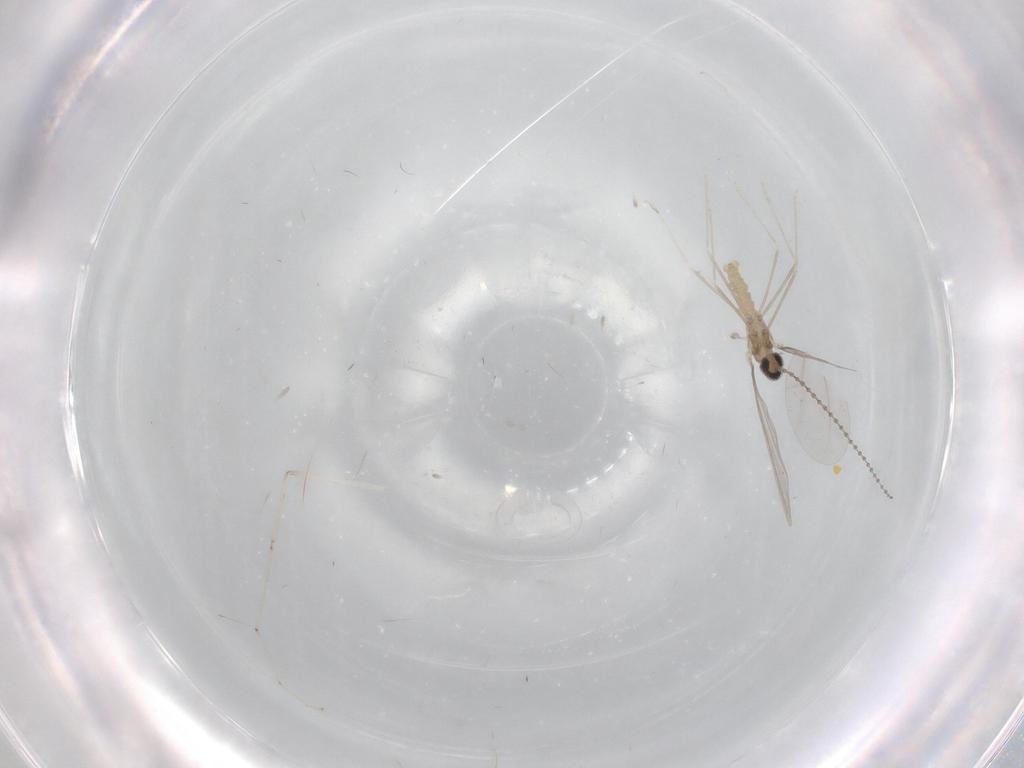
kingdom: Animalia
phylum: Arthropoda
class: Insecta
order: Diptera
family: Cecidomyiidae
